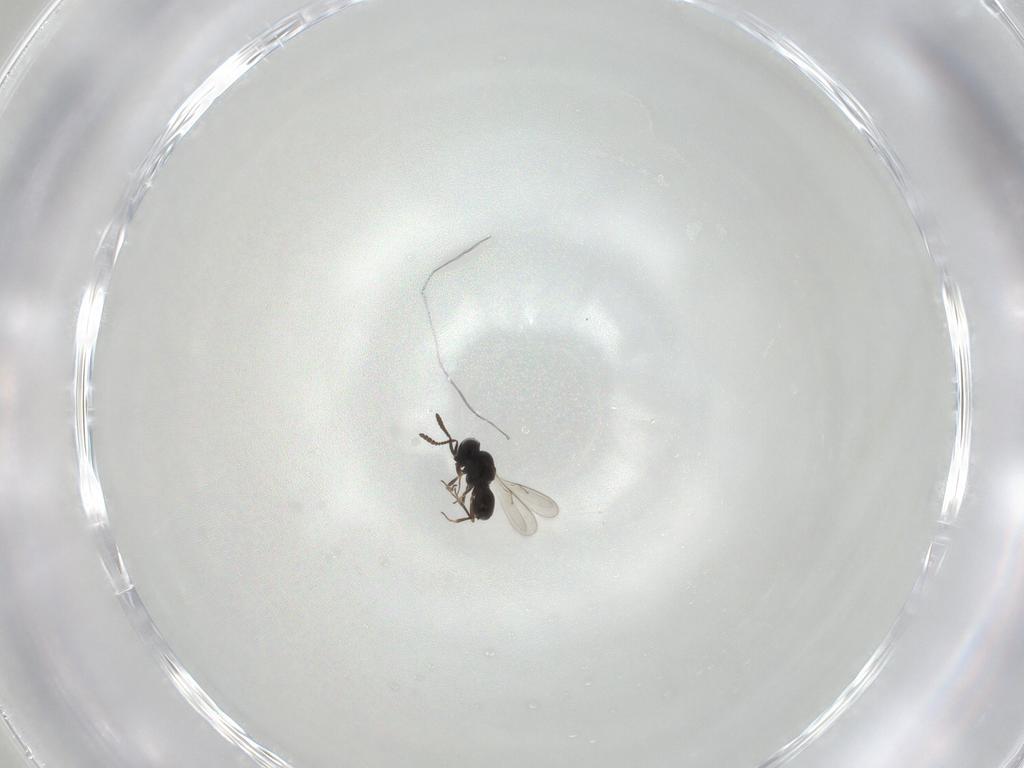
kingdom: Animalia
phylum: Arthropoda
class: Insecta
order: Hymenoptera
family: Scelionidae
